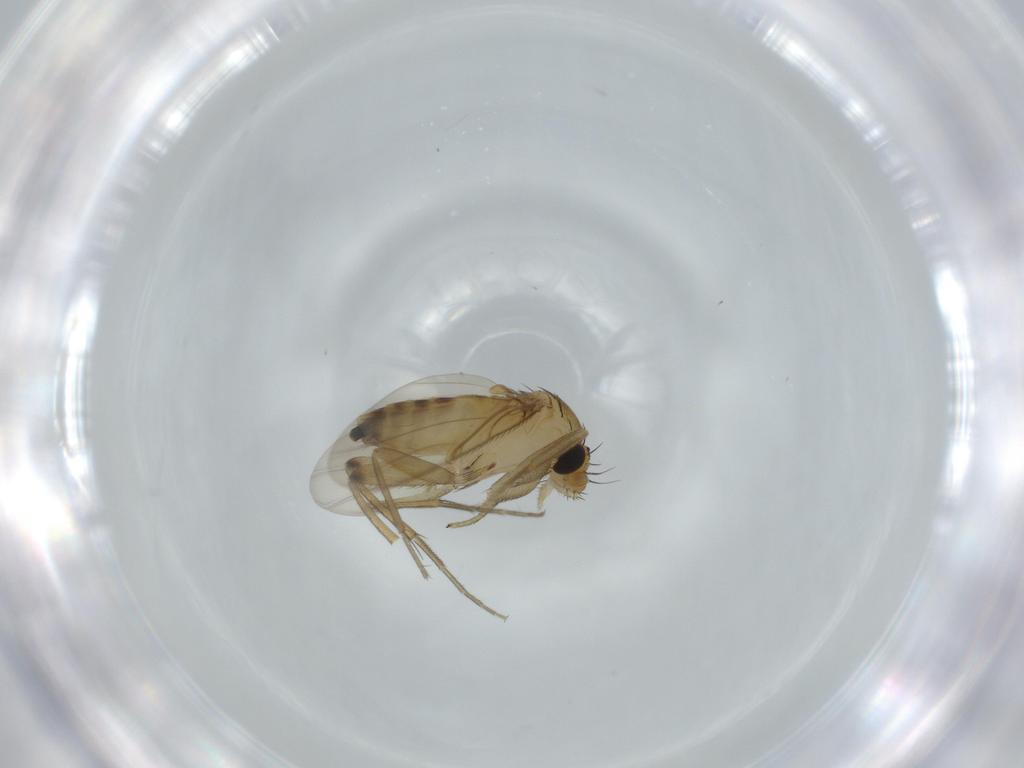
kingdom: Animalia
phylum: Arthropoda
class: Insecta
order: Diptera
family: Phoridae
